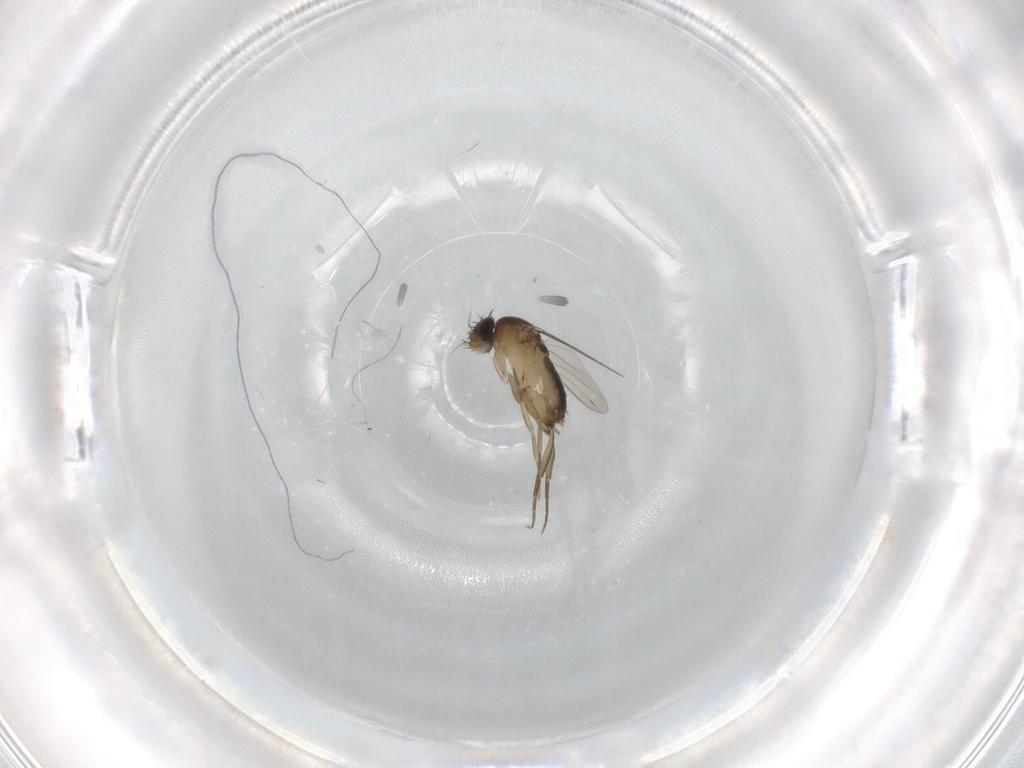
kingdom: Animalia
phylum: Arthropoda
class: Insecta
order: Diptera
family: Limoniidae
